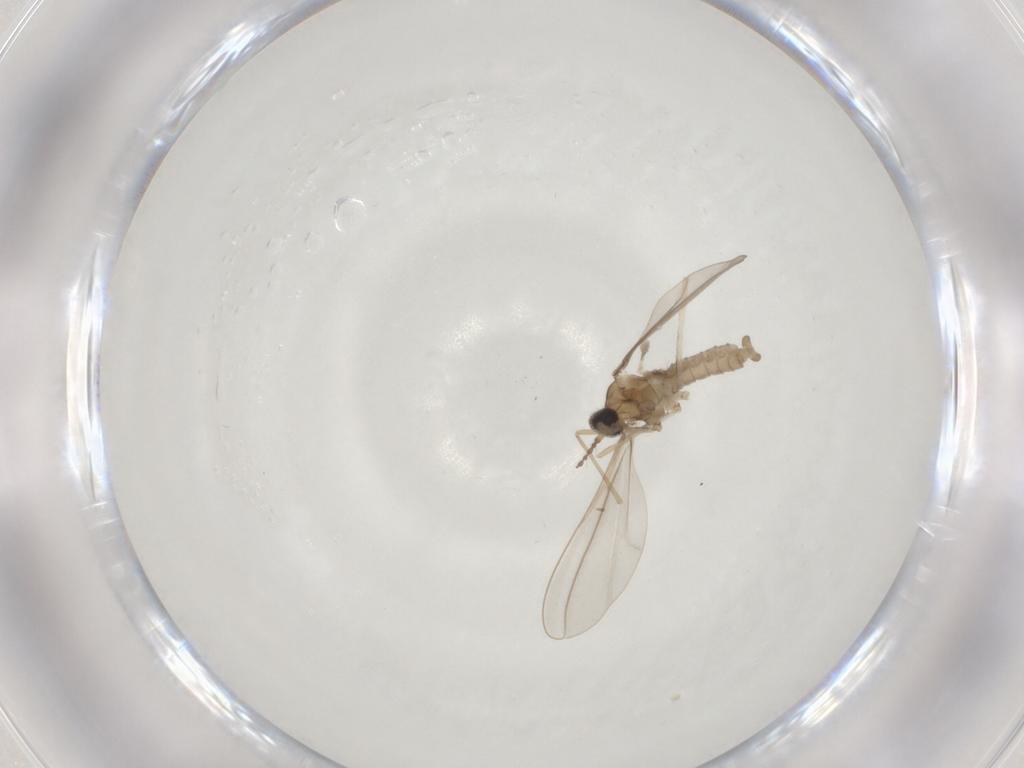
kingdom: Animalia
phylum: Arthropoda
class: Insecta
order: Diptera
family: Cecidomyiidae
